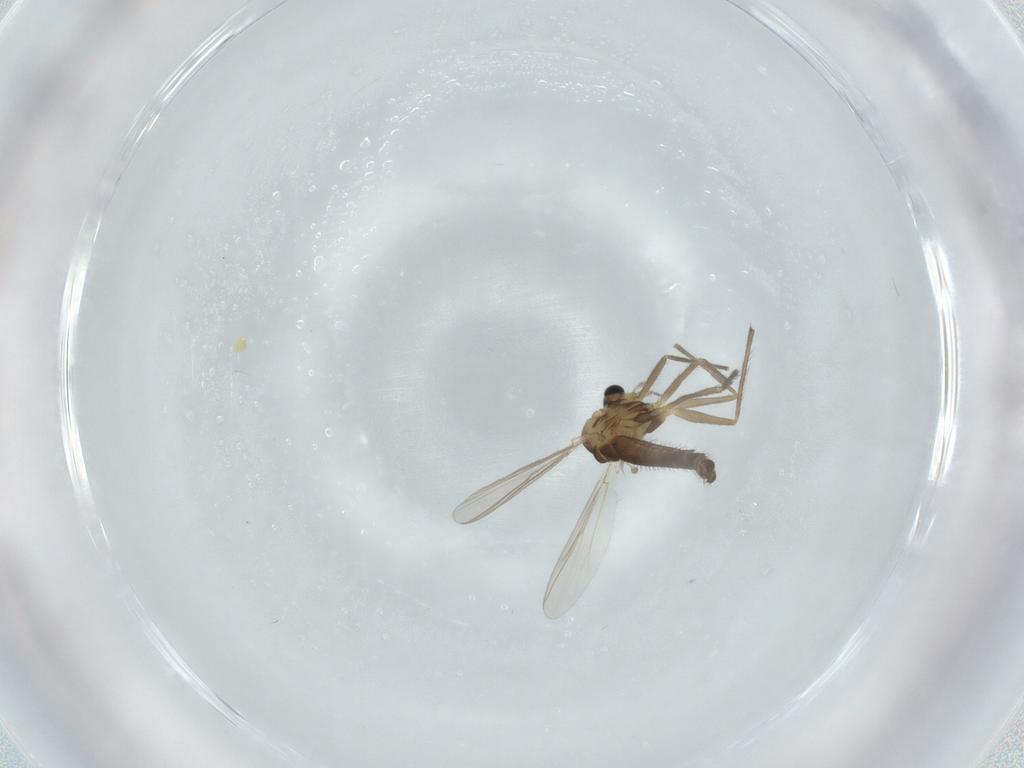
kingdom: Animalia
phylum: Arthropoda
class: Insecta
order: Diptera
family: Chironomidae
